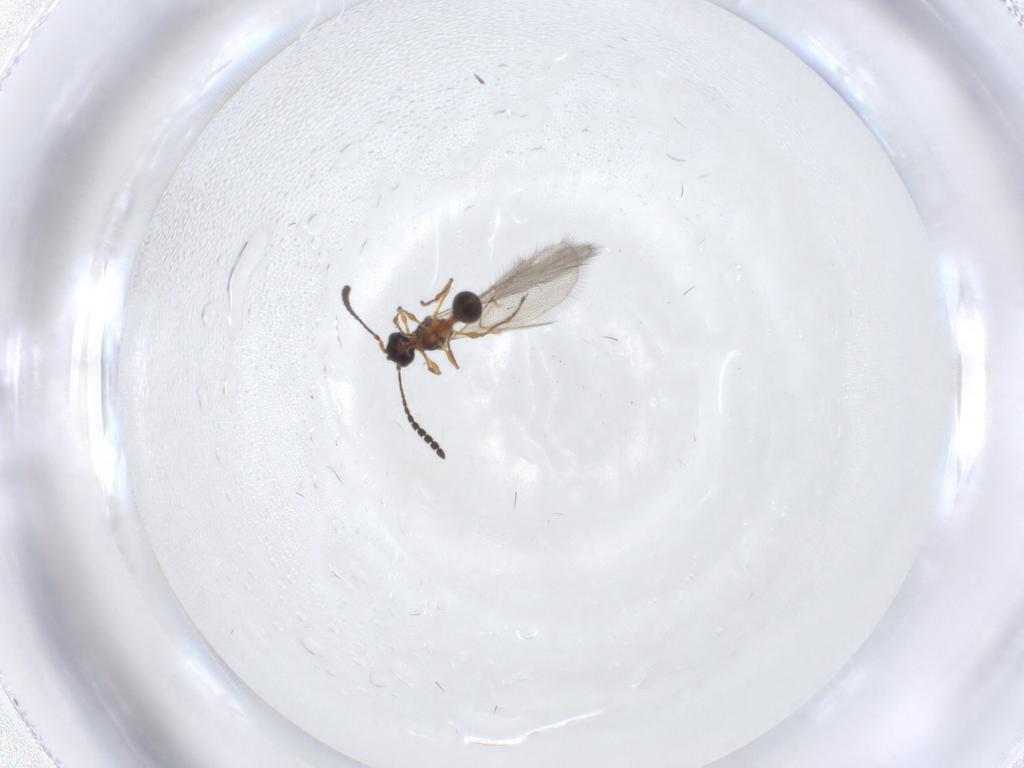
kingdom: Animalia
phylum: Arthropoda
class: Insecta
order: Hymenoptera
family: Diapriidae
